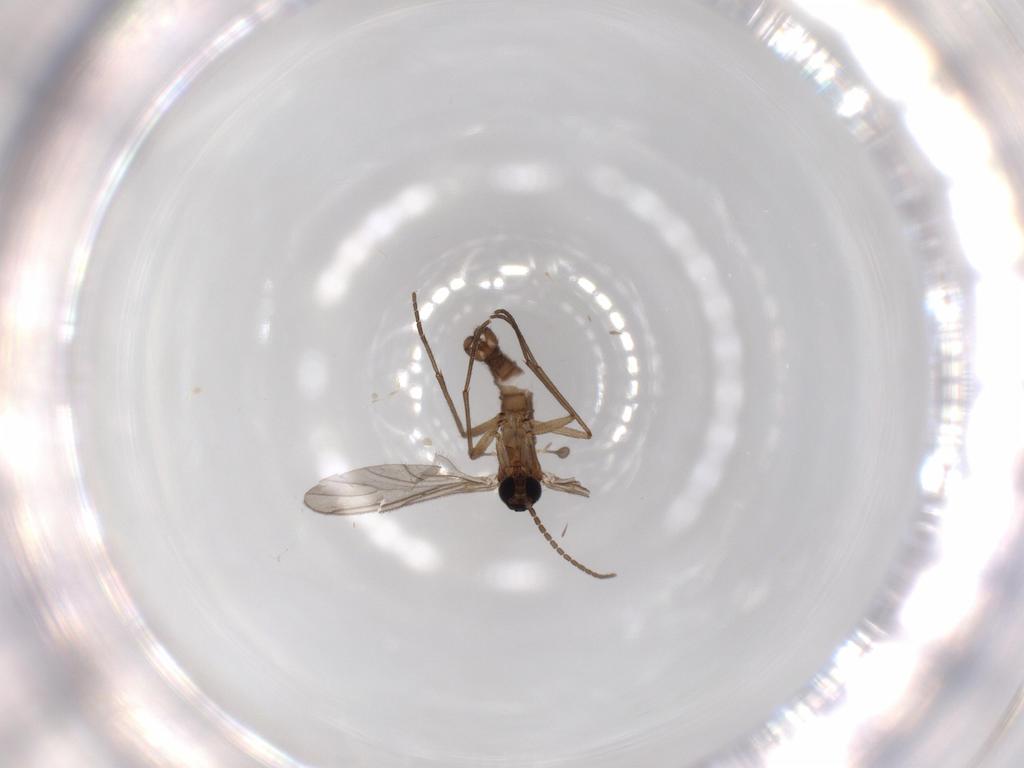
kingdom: Animalia
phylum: Arthropoda
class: Insecta
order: Diptera
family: Sciaridae
